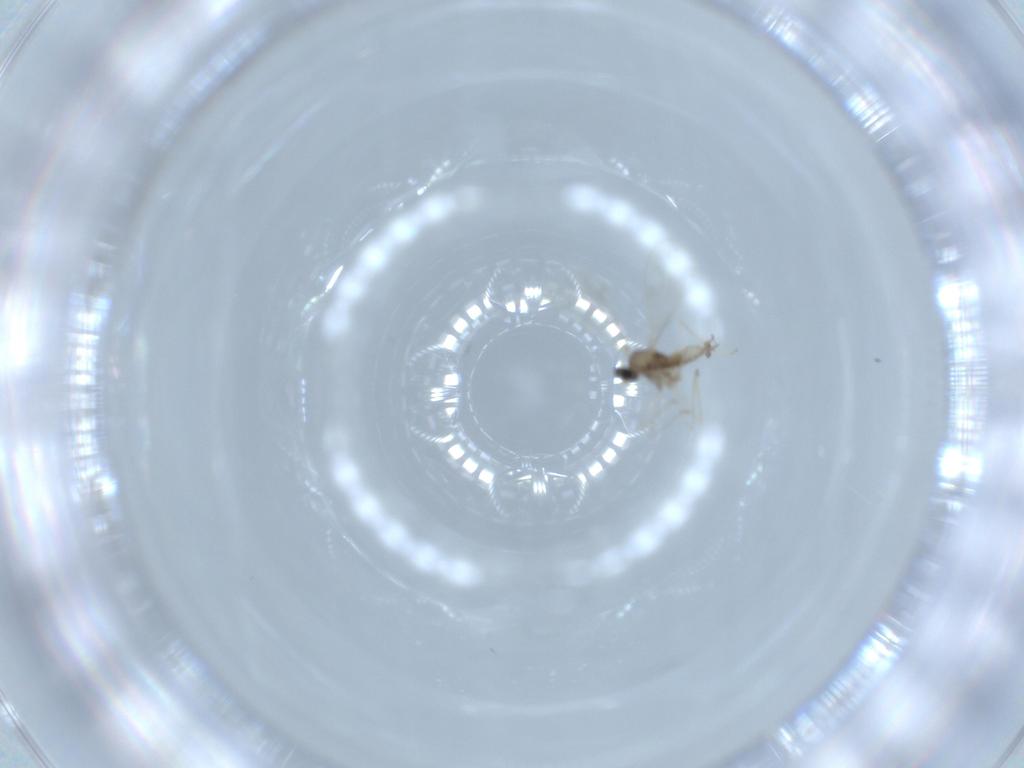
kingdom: Animalia
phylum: Arthropoda
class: Insecta
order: Diptera
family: Cecidomyiidae
